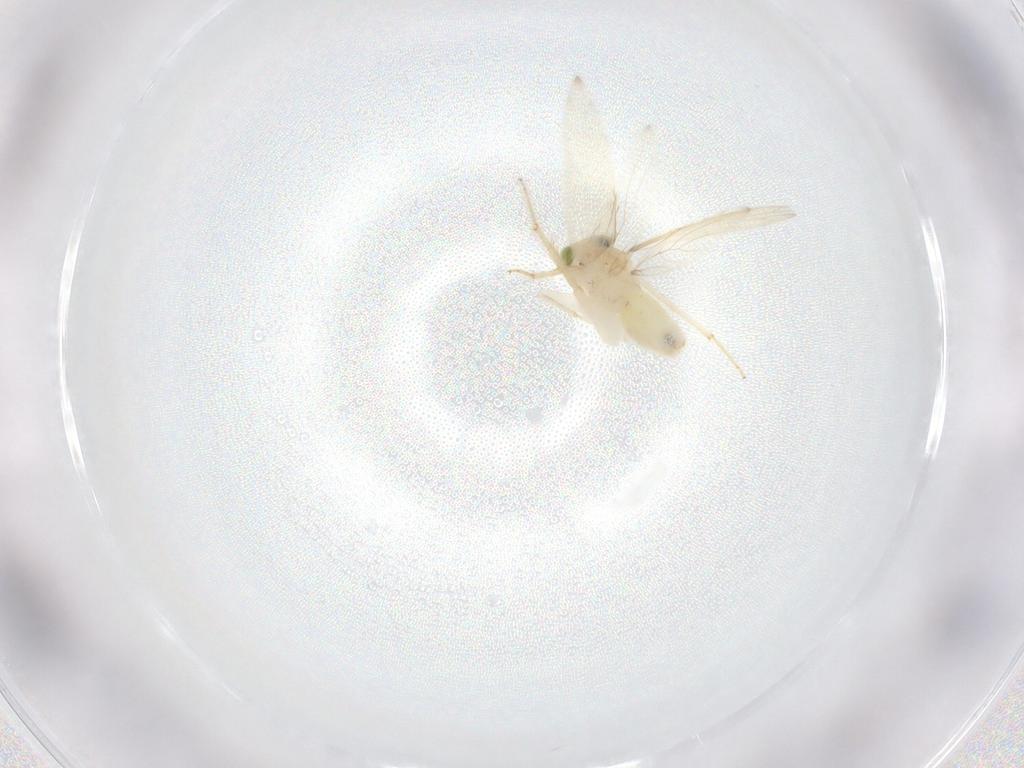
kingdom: Animalia
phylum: Arthropoda
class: Insecta
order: Psocodea
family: Lepidopsocidae
